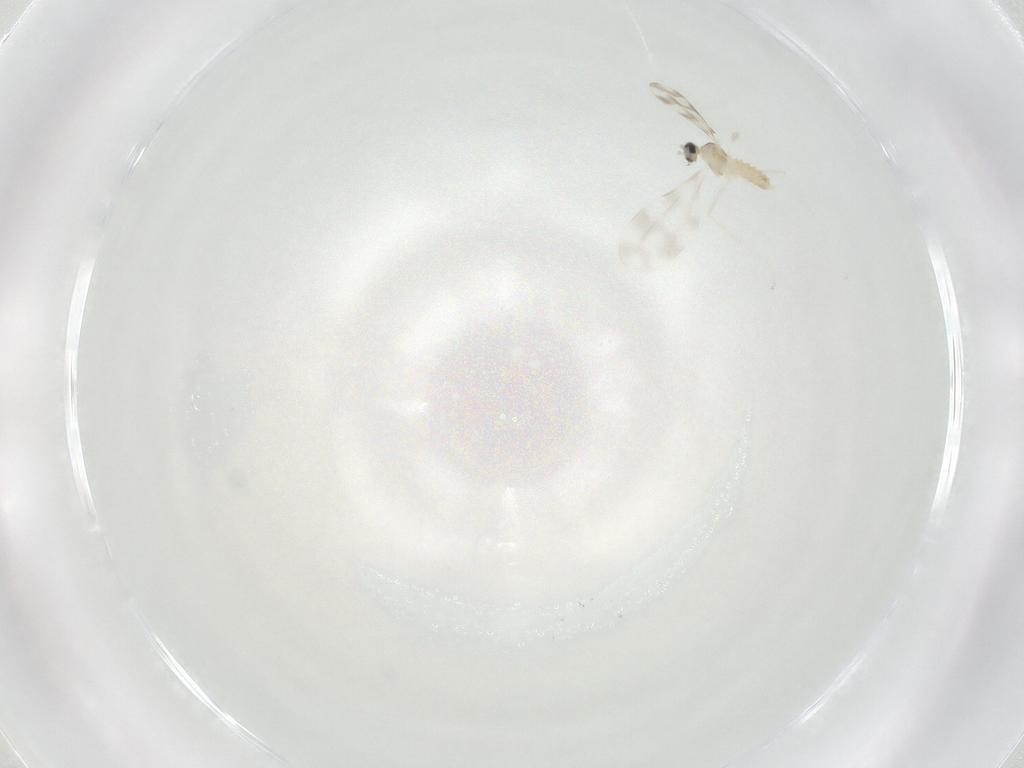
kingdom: Animalia
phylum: Arthropoda
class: Insecta
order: Diptera
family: Cecidomyiidae
